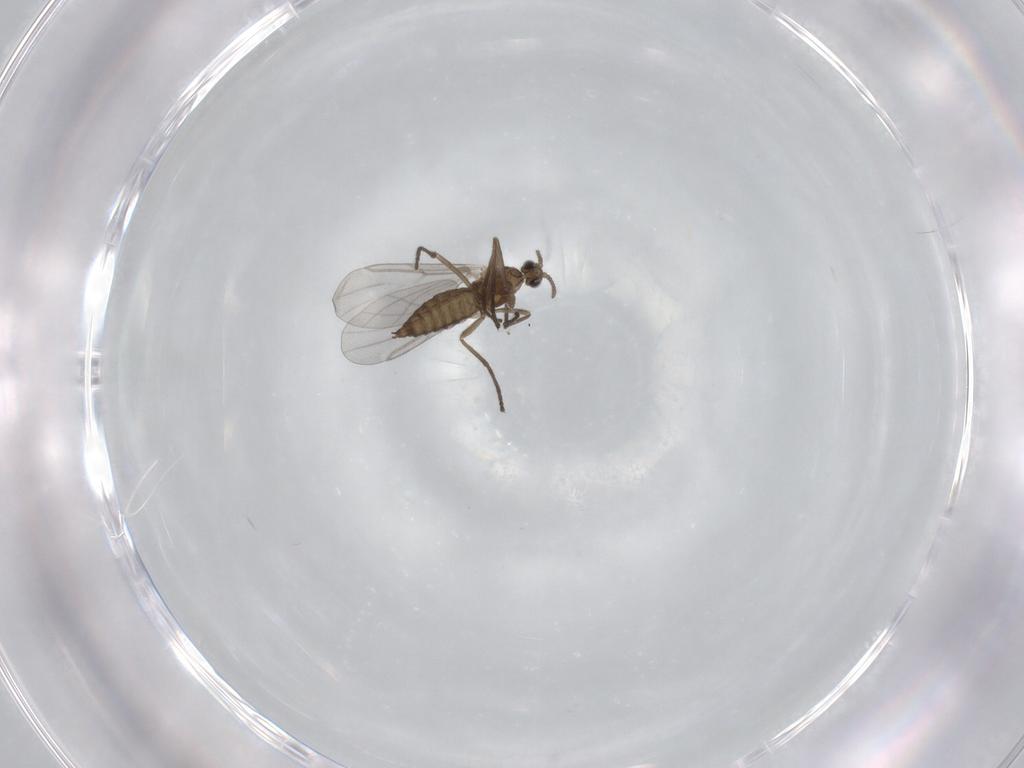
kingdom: Animalia
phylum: Arthropoda
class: Insecta
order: Diptera
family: Cecidomyiidae
